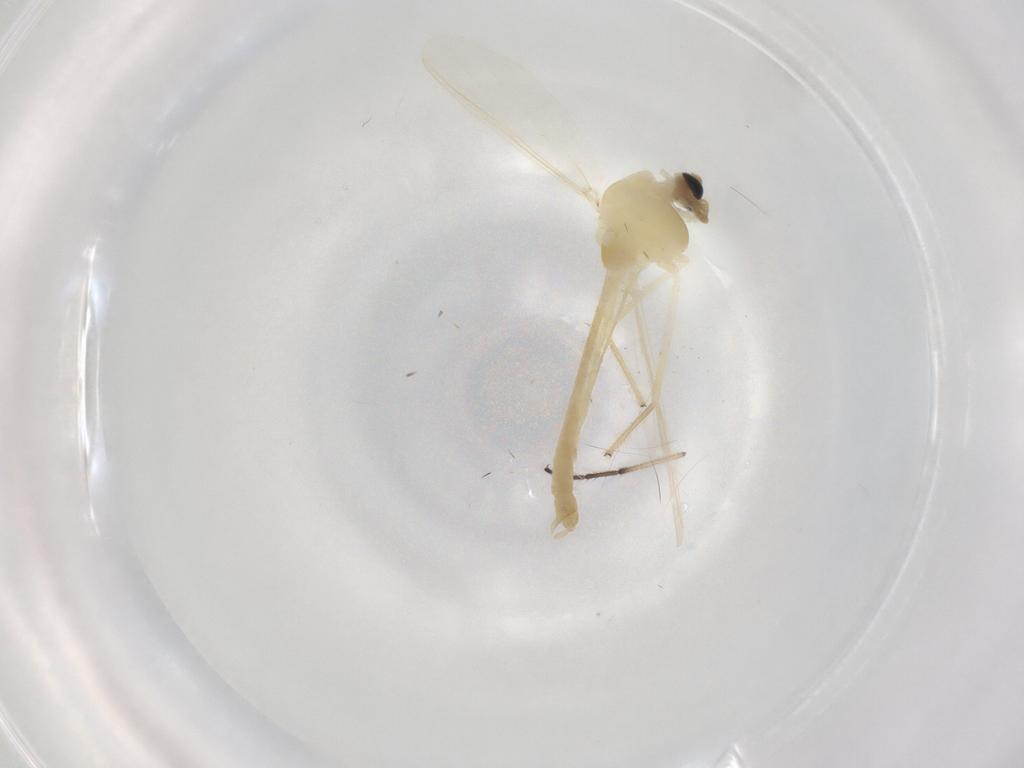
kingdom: Animalia
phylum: Arthropoda
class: Insecta
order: Diptera
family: Chironomidae
